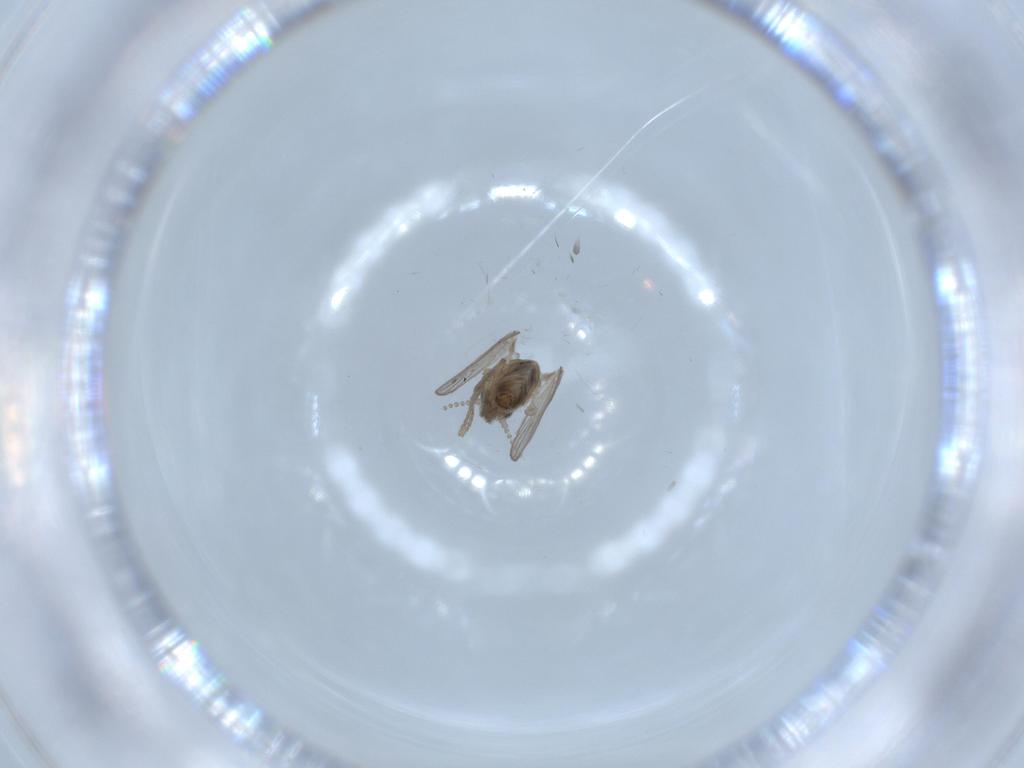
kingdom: Animalia
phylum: Arthropoda
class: Insecta
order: Diptera
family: Psychodidae
